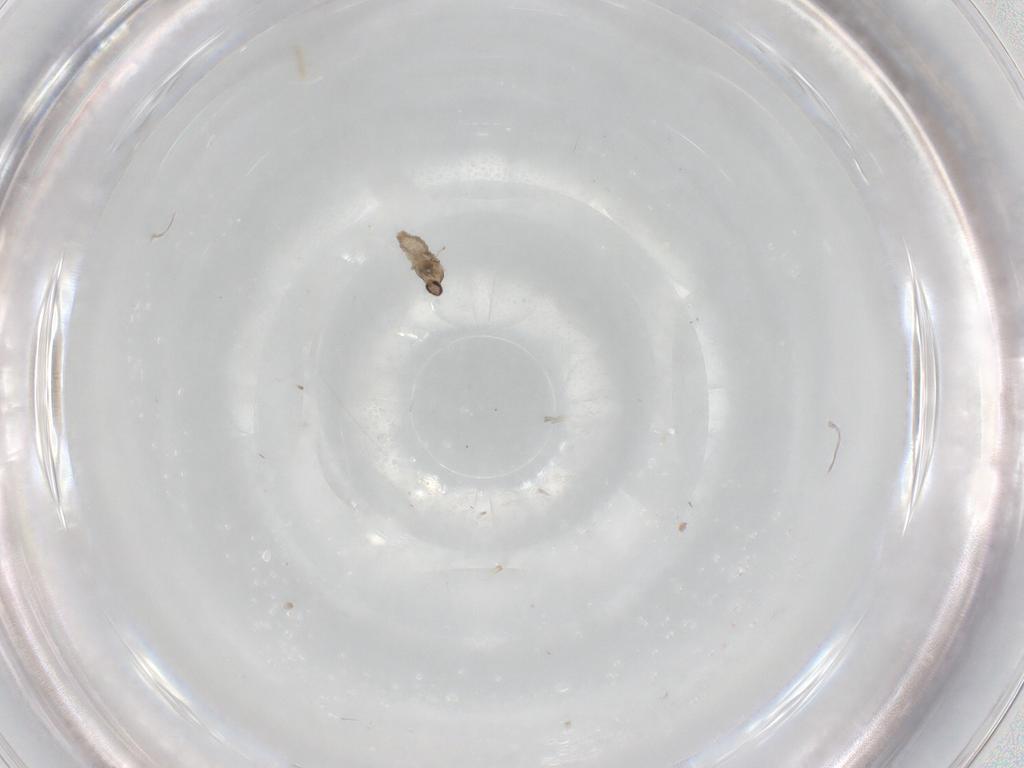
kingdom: Animalia
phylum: Arthropoda
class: Insecta
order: Diptera
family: Cecidomyiidae
